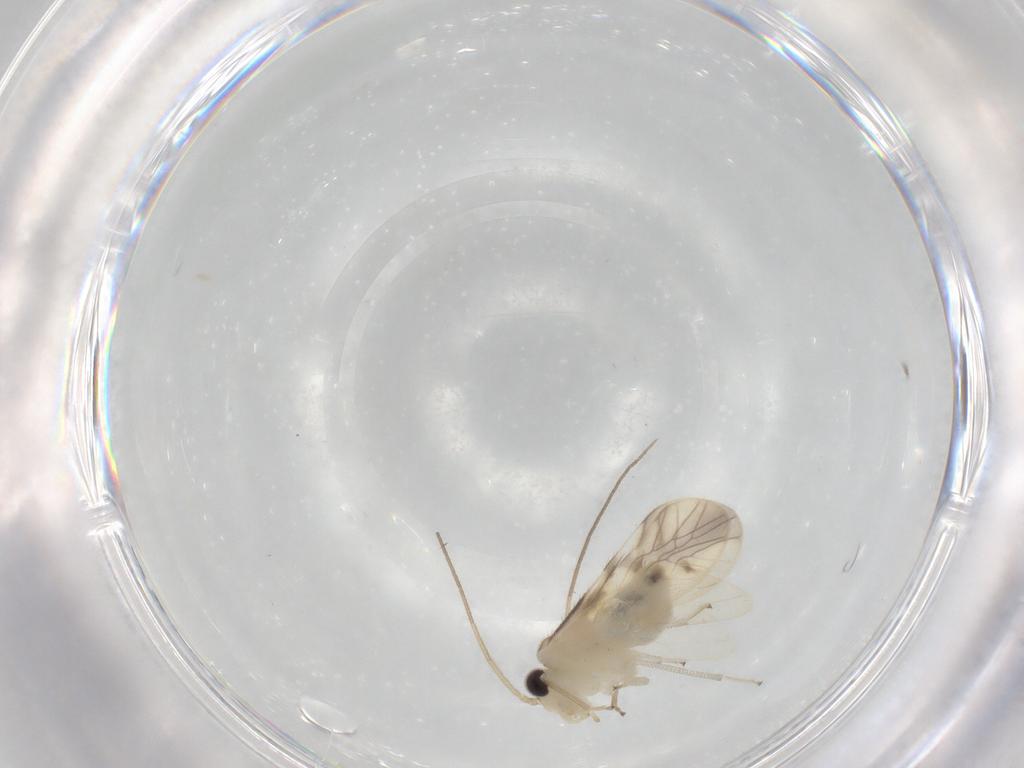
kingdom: Animalia
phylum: Arthropoda
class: Insecta
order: Psocodea
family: Caeciliusidae
